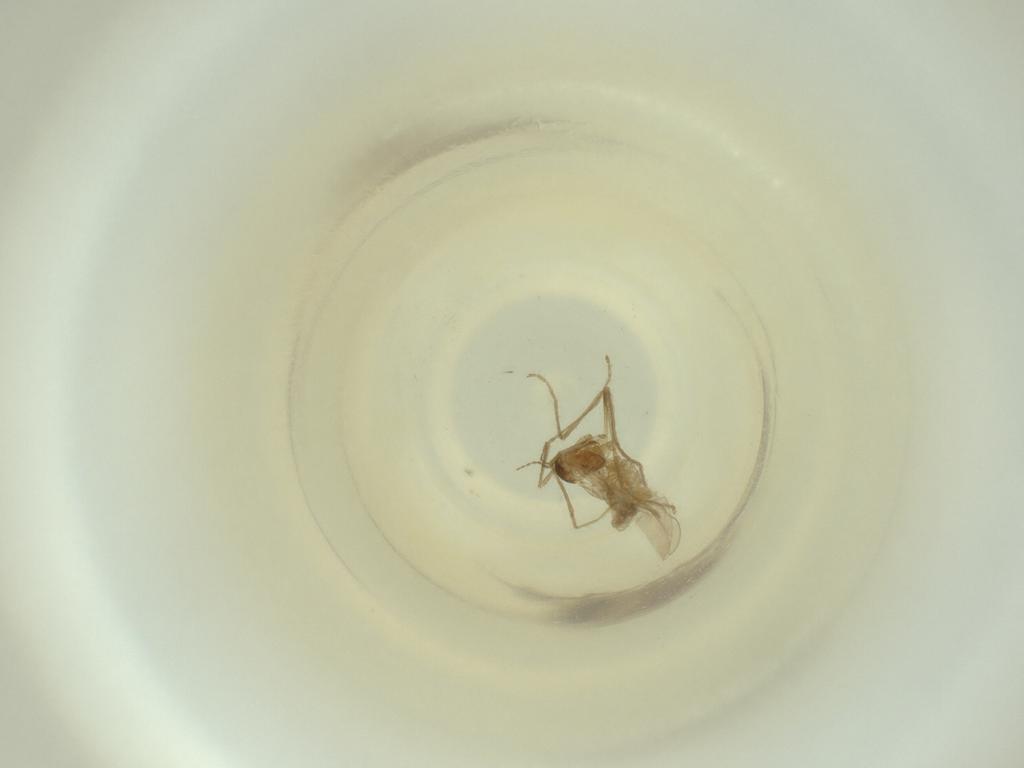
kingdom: Animalia
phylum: Arthropoda
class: Insecta
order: Diptera
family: Cecidomyiidae
